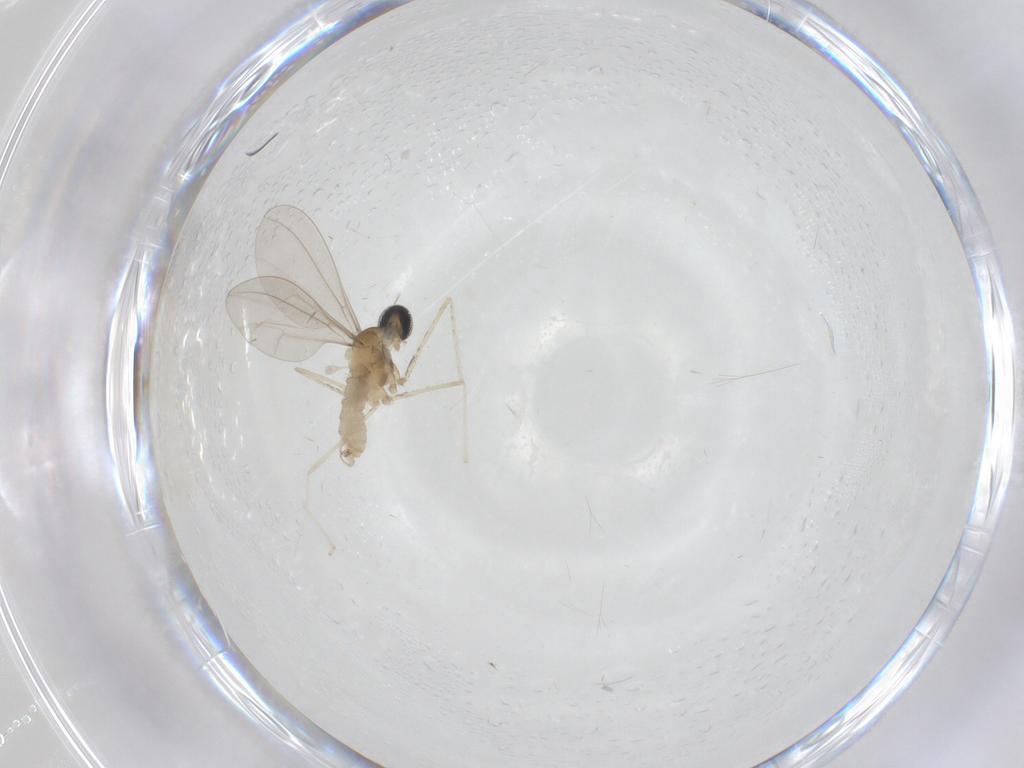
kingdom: Animalia
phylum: Arthropoda
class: Insecta
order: Diptera
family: Cecidomyiidae
